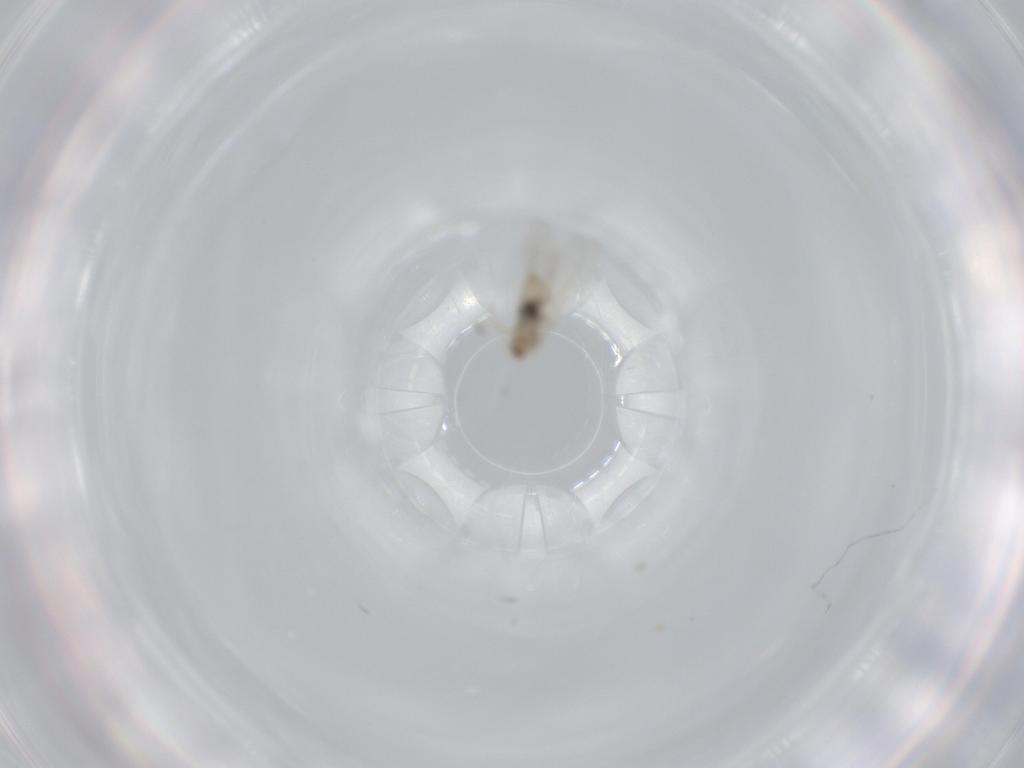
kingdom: Animalia
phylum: Arthropoda
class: Insecta
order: Diptera
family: Cecidomyiidae
